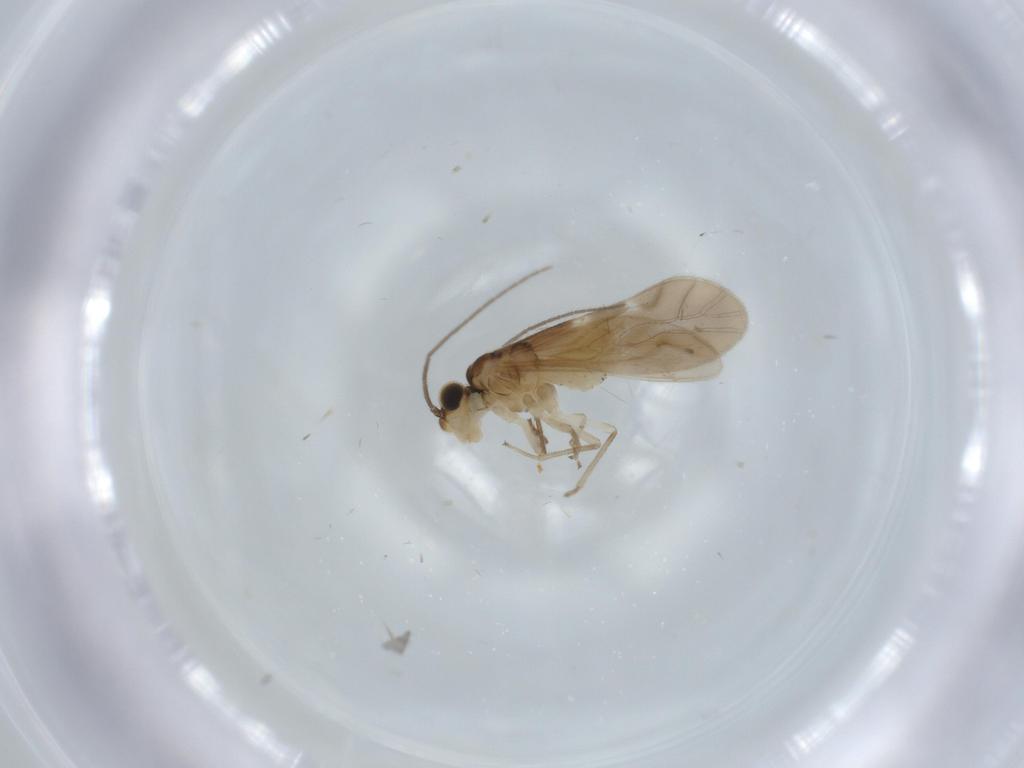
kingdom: Animalia
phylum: Arthropoda
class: Insecta
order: Psocodea
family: Caeciliusidae
